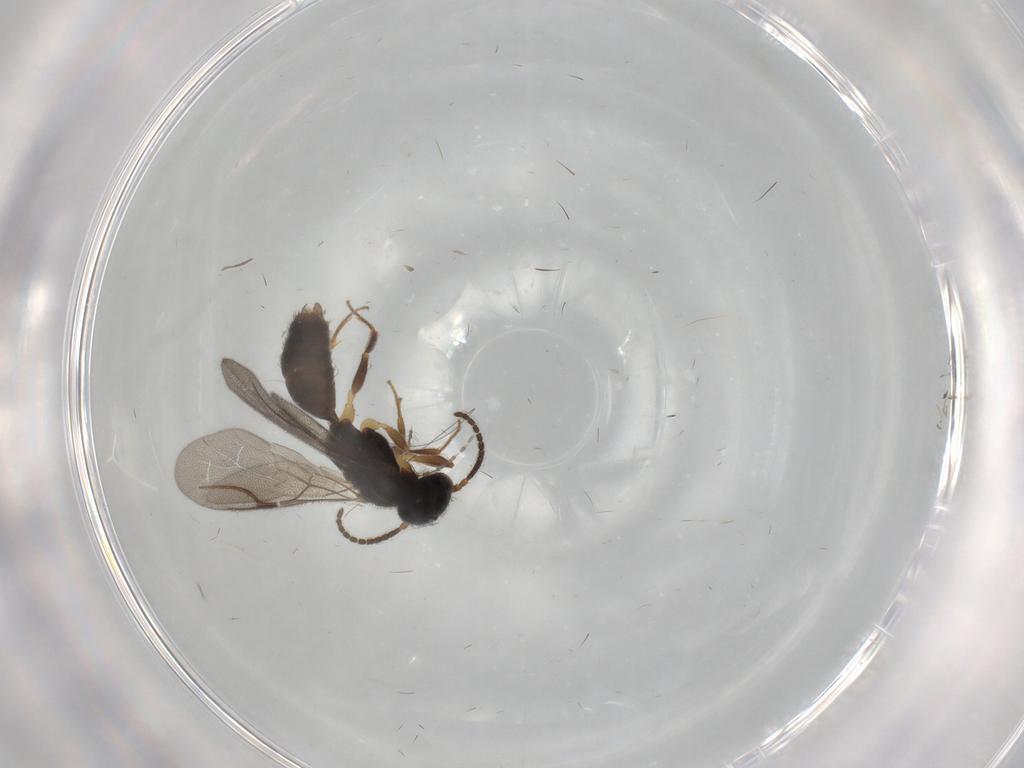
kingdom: Animalia
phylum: Arthropoda
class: Insecta
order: Hymenoptera
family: Bethylidae
